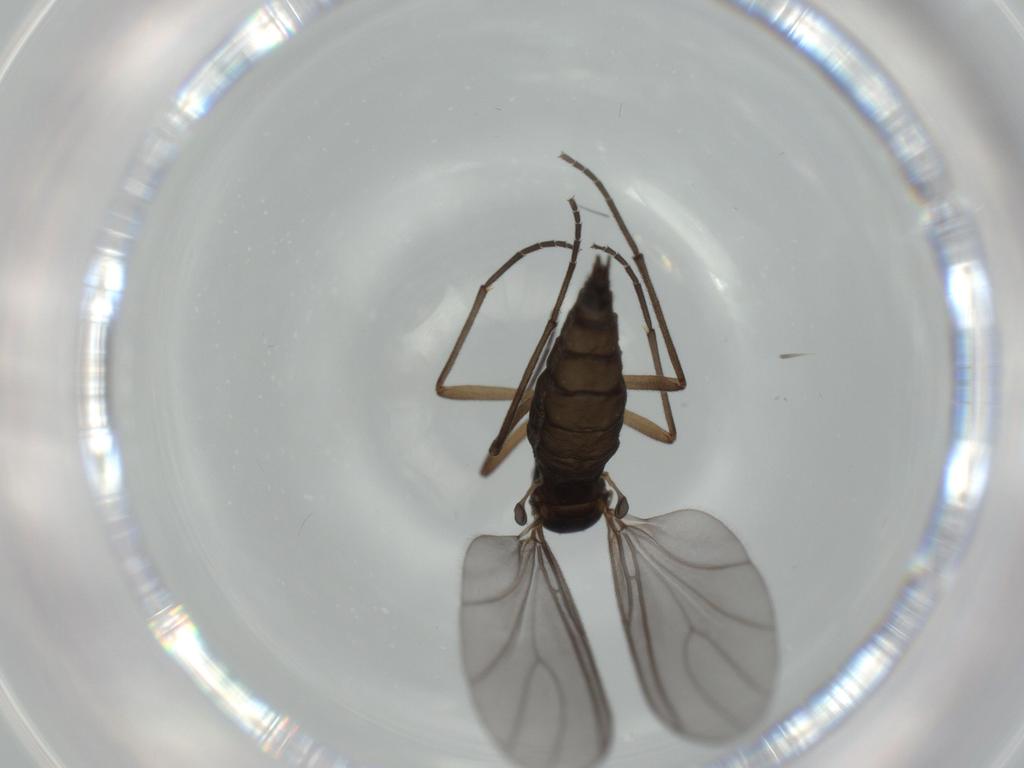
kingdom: Animalia
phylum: Arthropoda
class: Insecta
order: Diptera
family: Sciaridae
